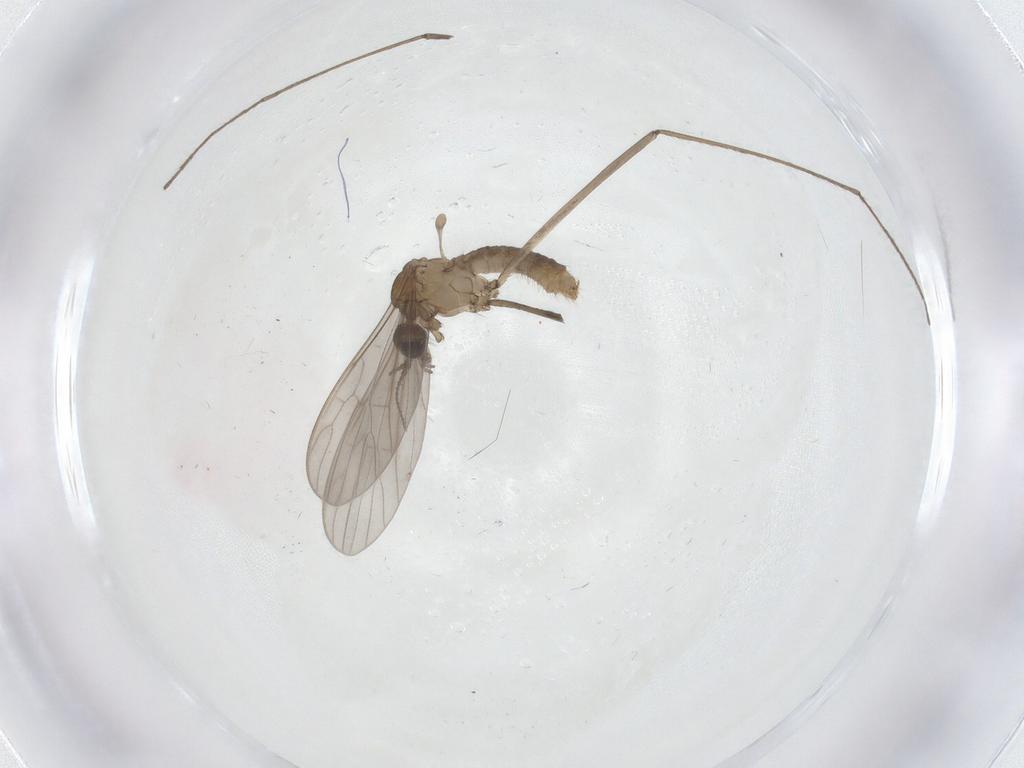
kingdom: Animalia
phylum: Arthropoda
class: Insecta
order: Diptera
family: Limoniidae
